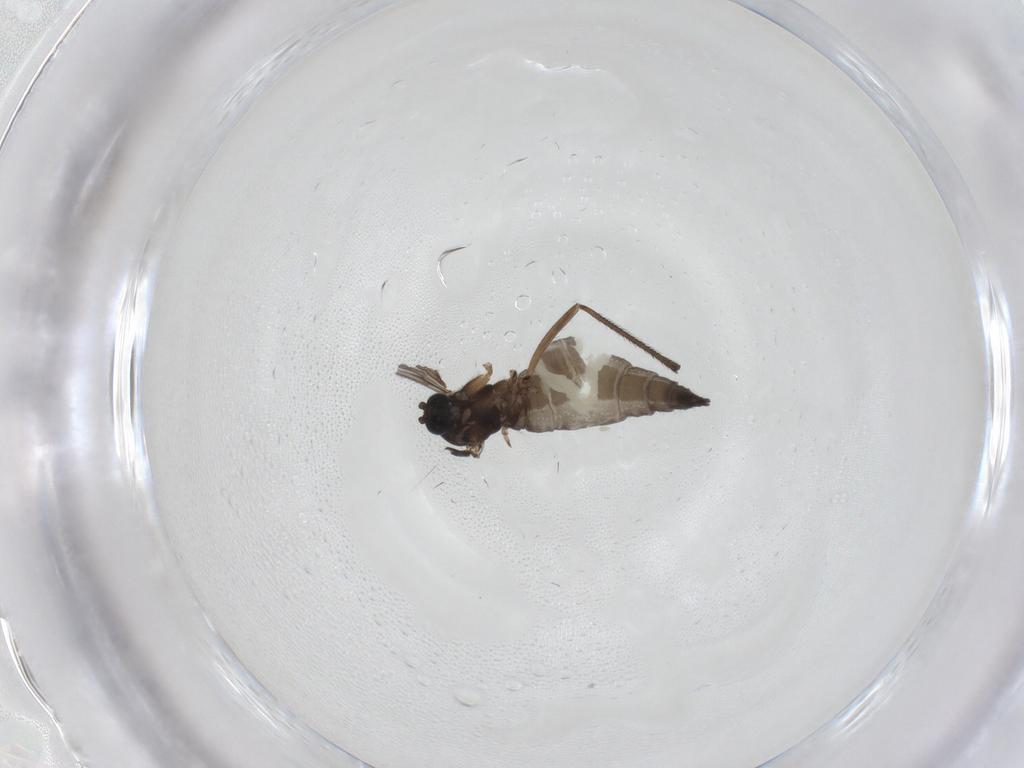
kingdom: Animalia
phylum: Arthropoda
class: Insecta
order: Diptera
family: Sciaridae
